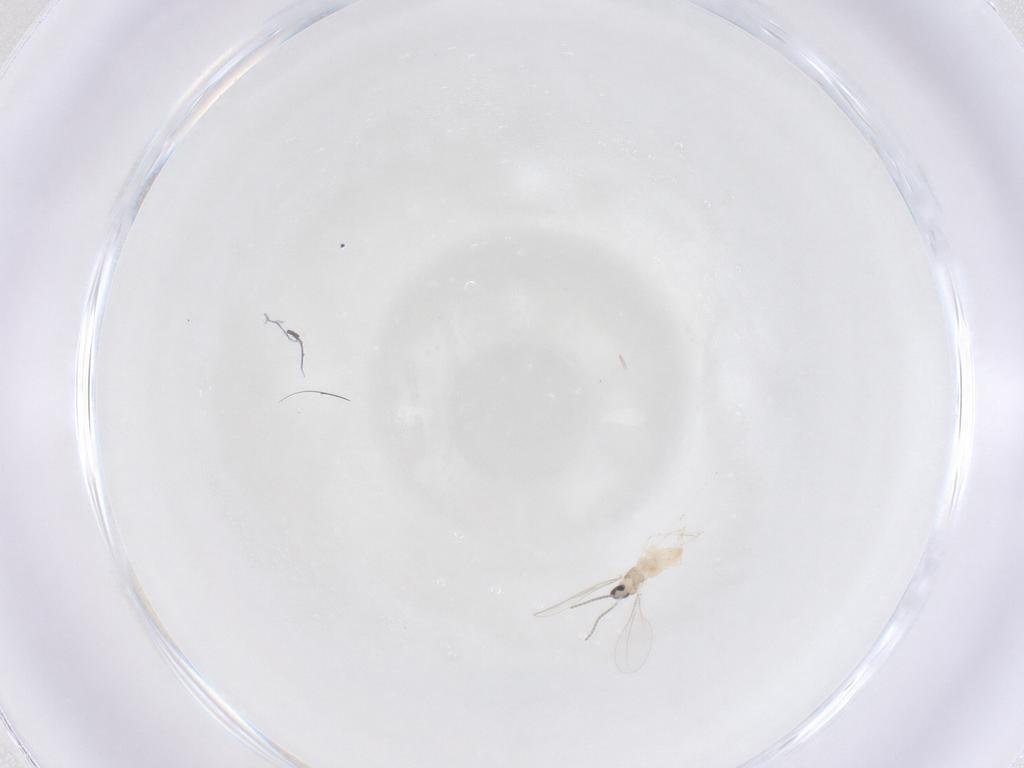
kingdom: Animalia
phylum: Arthropoda
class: Insecta
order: Diptera
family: Cecidomyiidae
